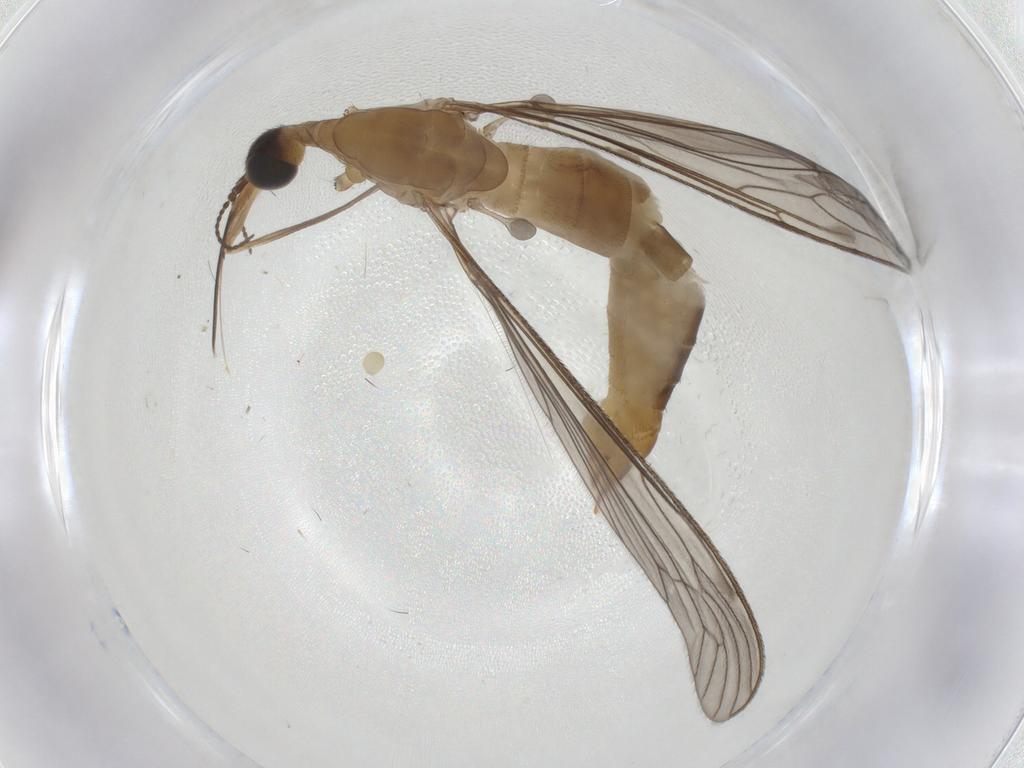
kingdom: Animalia
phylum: Arthropoda
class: Insecta
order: Diptera
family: Limoniidae
